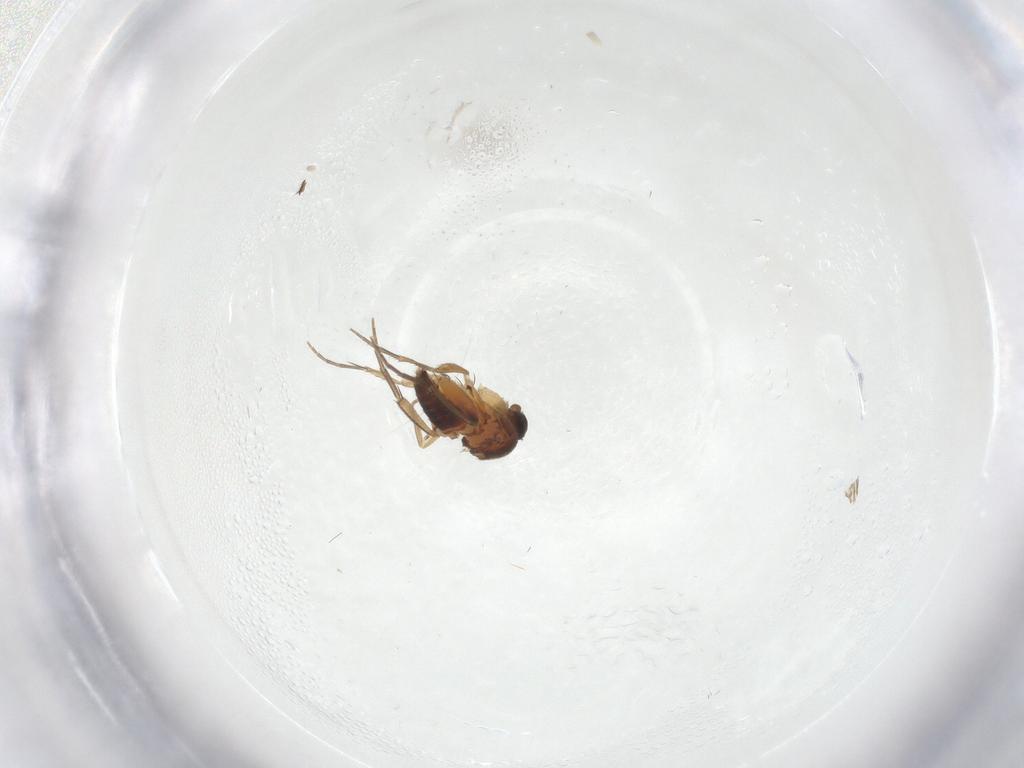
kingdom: Animalia
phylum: Arthropoda
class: Insecta
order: Diptera
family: Phoridae
